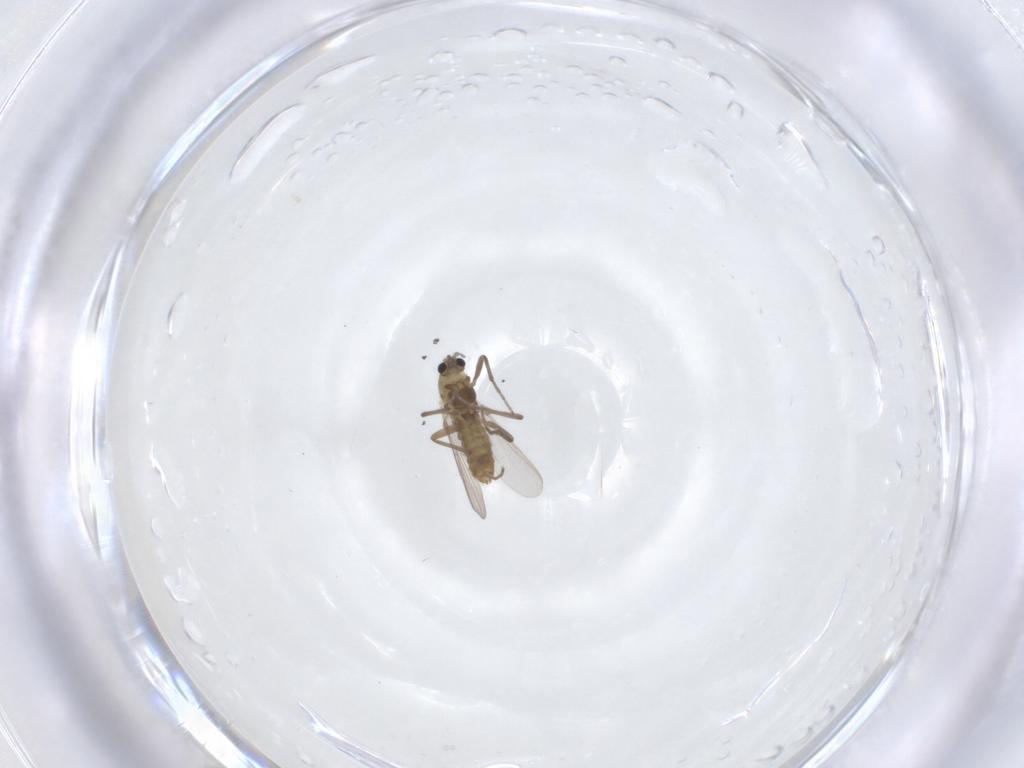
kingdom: Animalia
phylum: Arthropoda
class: Insecta
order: Diptera
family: Chironomidae
